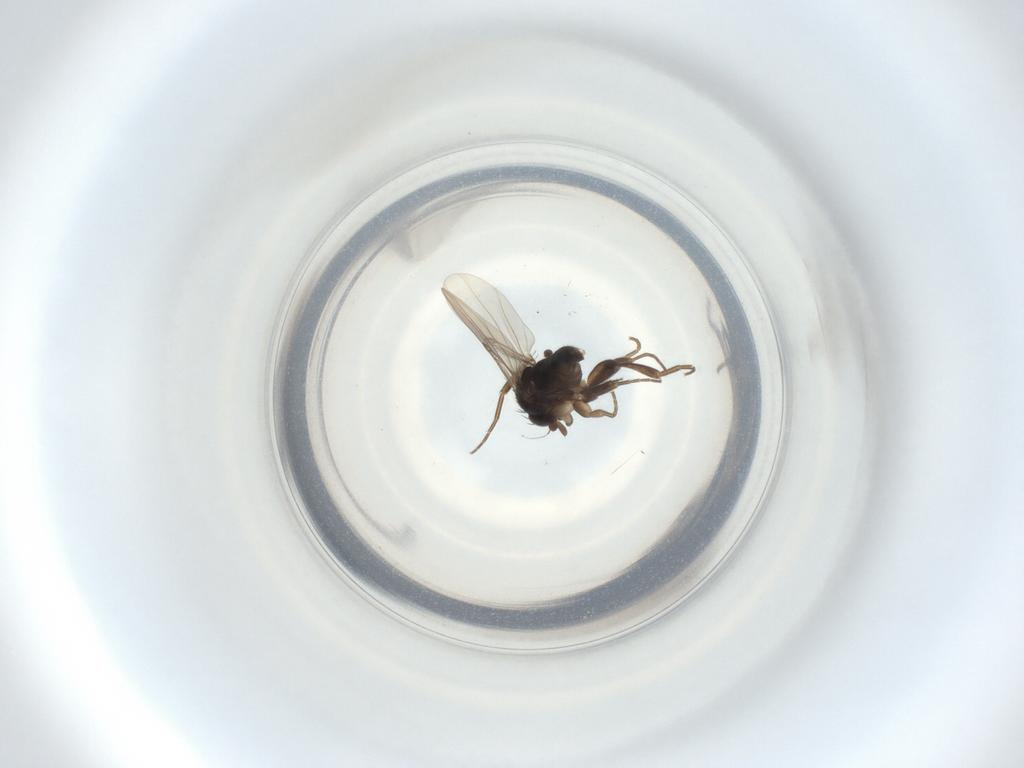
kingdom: Animalia
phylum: Arthropoda
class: Insecta
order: Diptera
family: Phoridae
